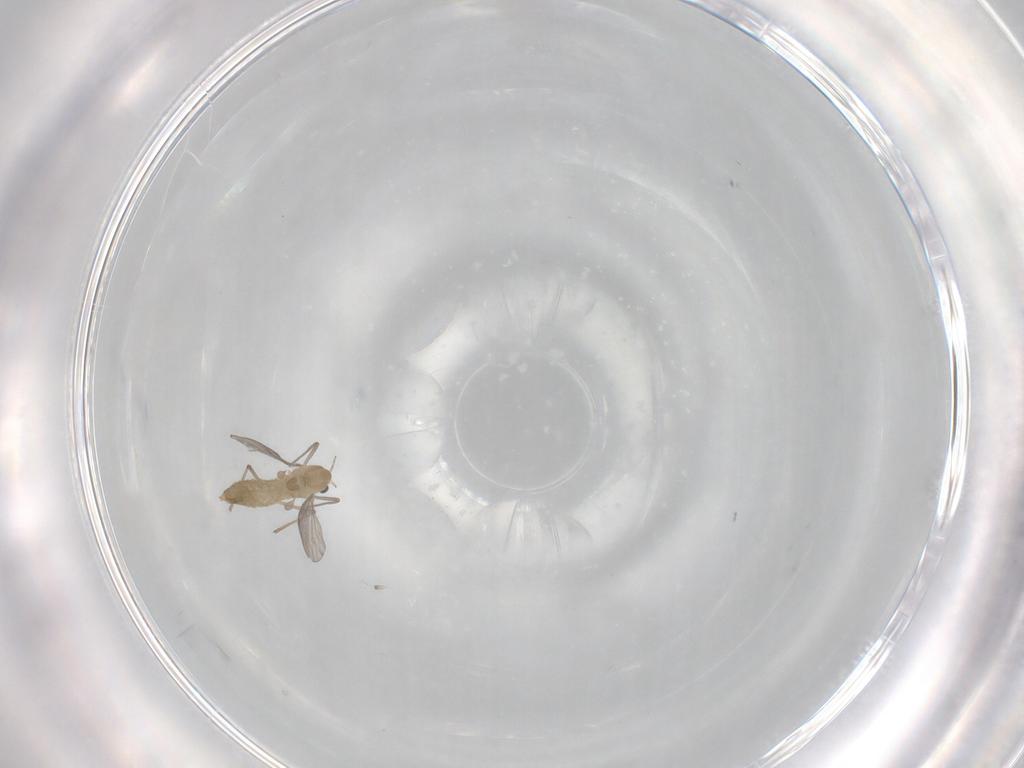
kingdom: Animalia
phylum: Arthropoda
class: Insecta
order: Diptera
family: Chironomidae
